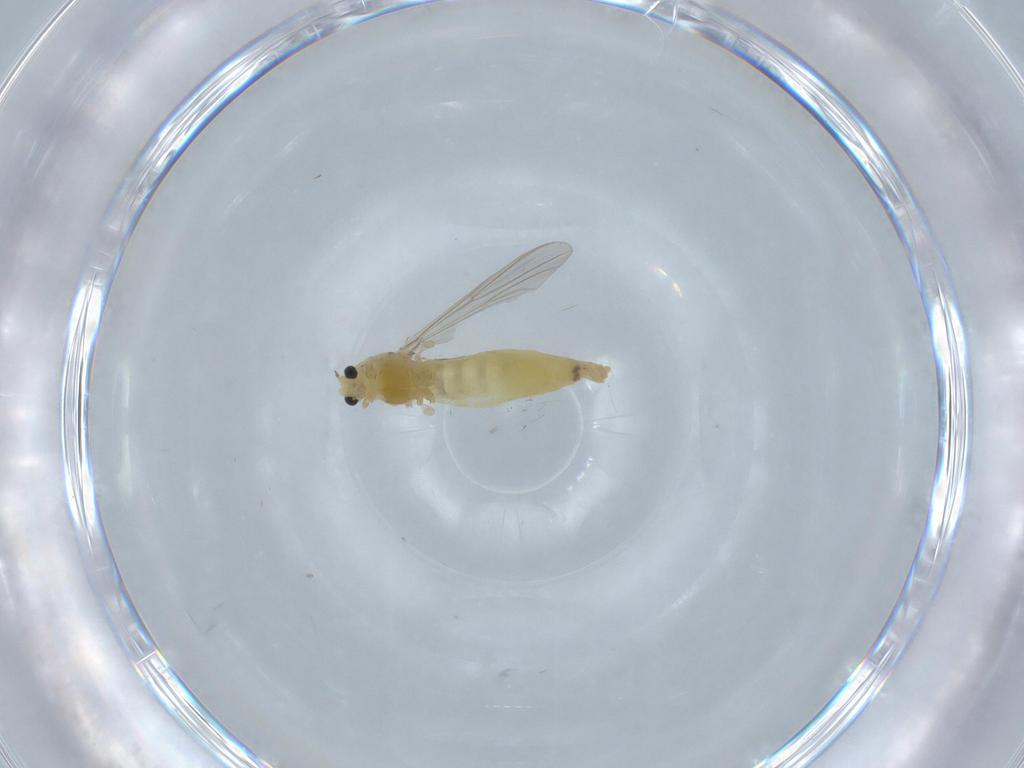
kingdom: Animalia
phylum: Arthropoda
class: Insecta
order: Diptera
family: Chironomidae
